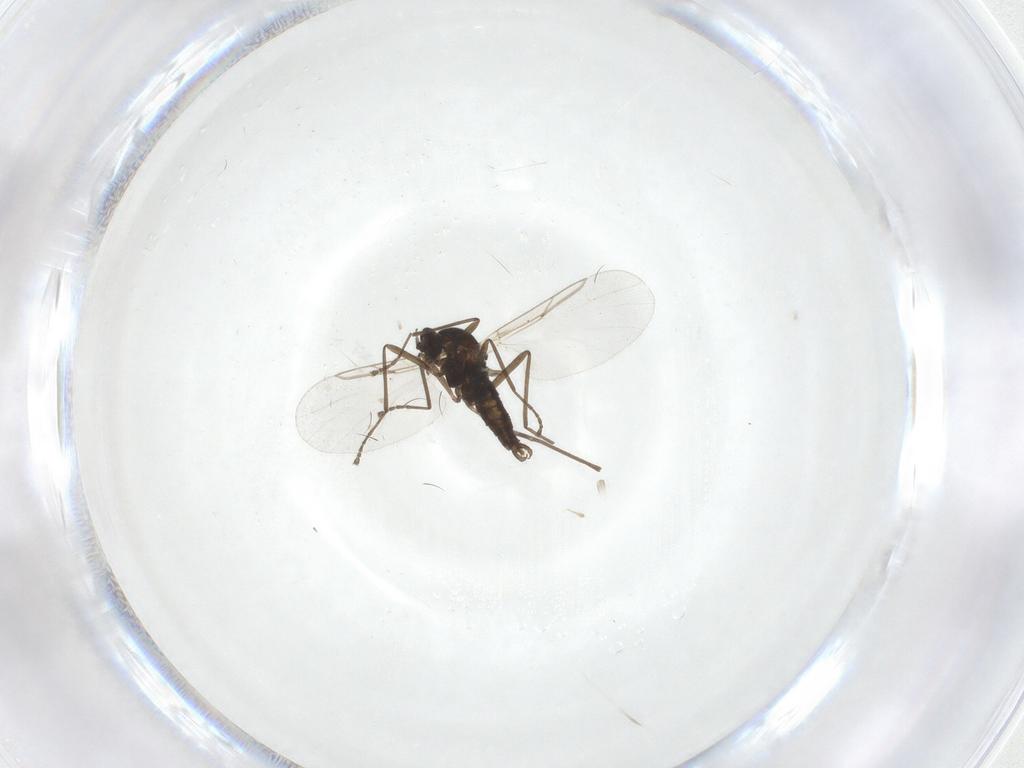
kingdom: Animalia
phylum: Arthropoda
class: Insecta
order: Diptera
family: Cecidomyiidae
